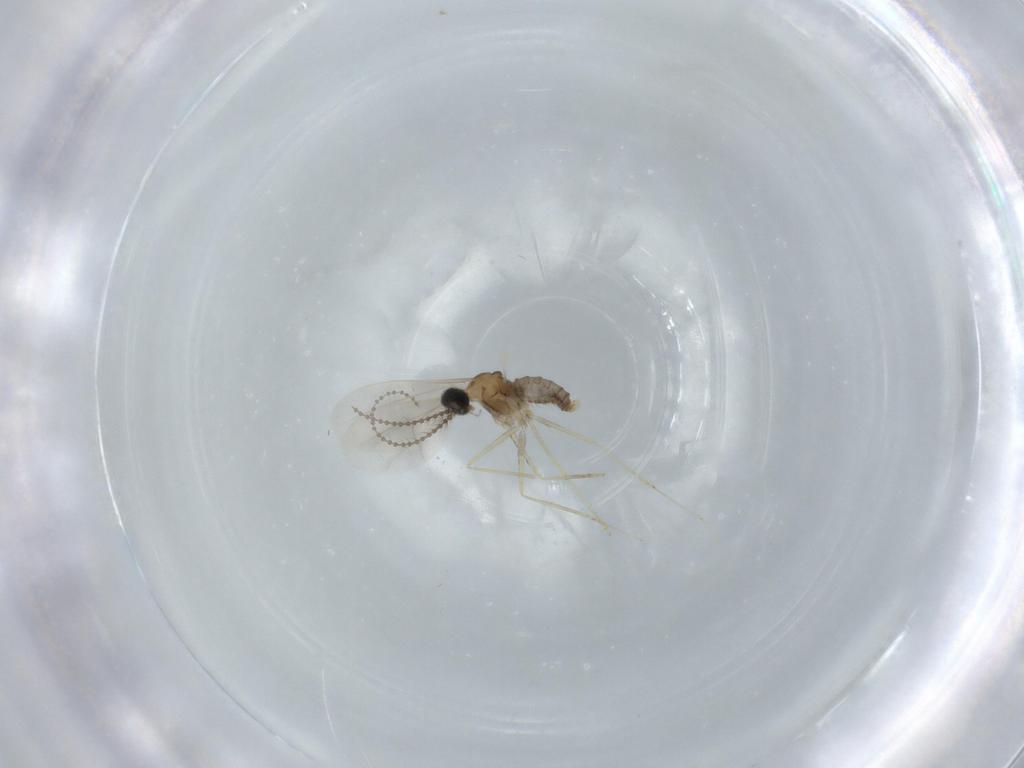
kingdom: Animalia
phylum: Arthropoda
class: Insecta
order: Diptera
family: Cecidomyiidae
